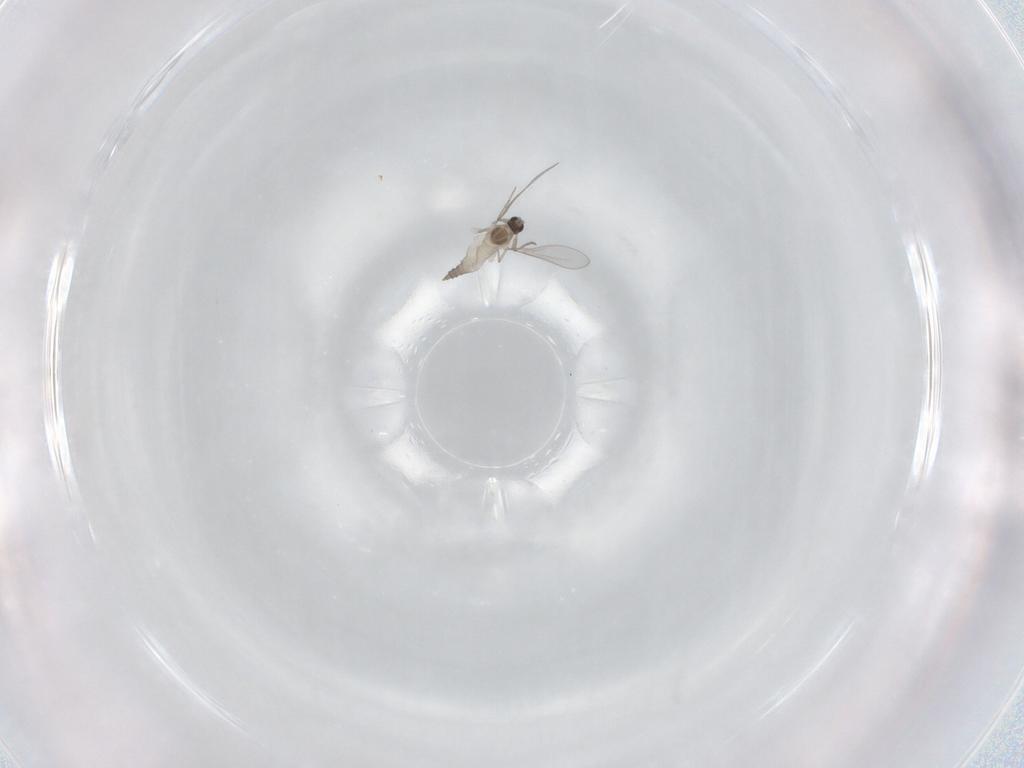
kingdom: Animalia
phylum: Arthropoda
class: Insecta
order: Diptera
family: Cecidomyiidae
